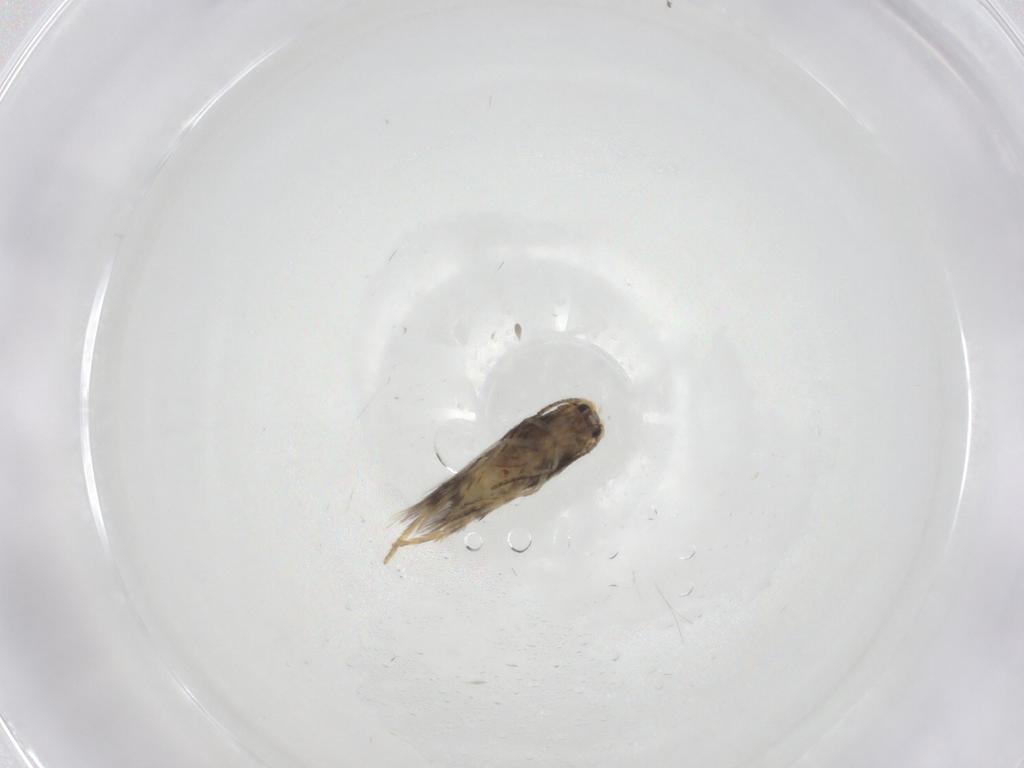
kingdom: Animalia
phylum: Arthropoda
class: Insecta
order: Lepidoptera
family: Nepticulidae
